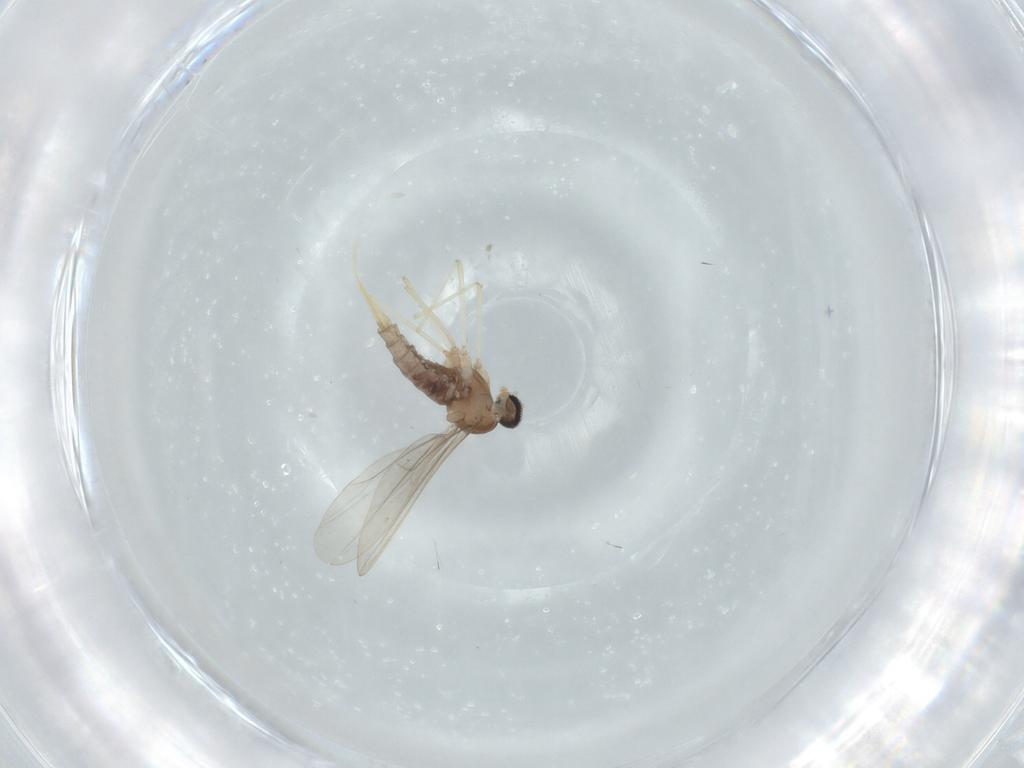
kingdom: Animalia
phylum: Arthropoda
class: Insecta
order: Diptera
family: Cecidomyiidae
